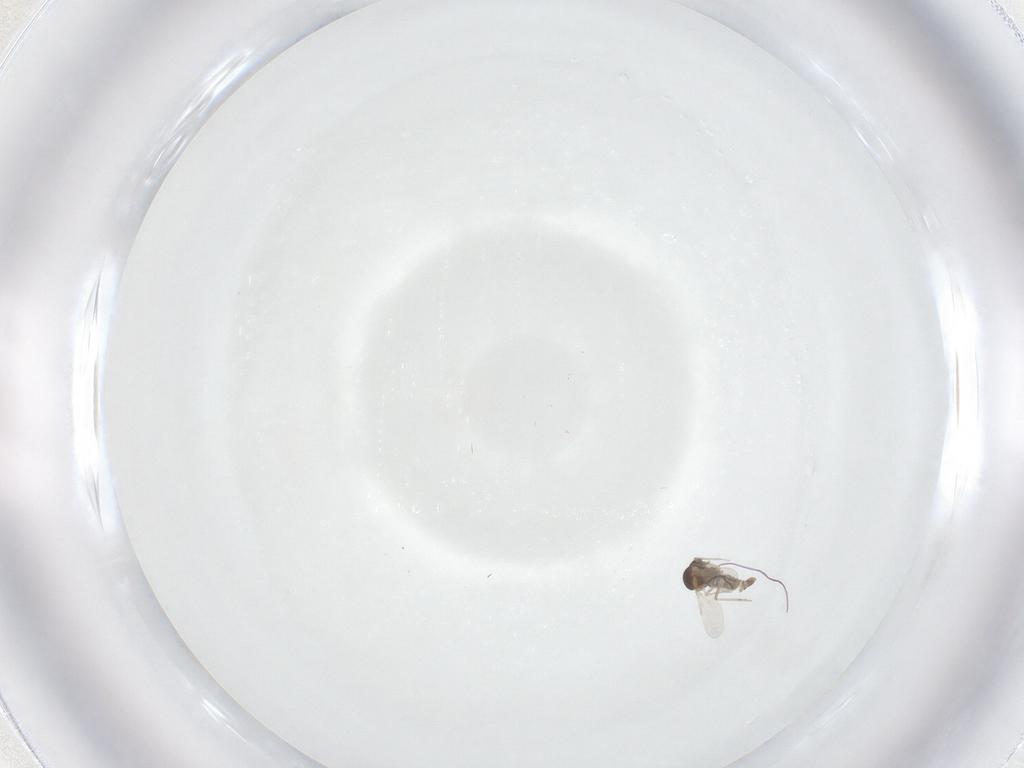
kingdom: Animalia
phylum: Arthropoda
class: Insecta
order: Diptera
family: Ceratopogonidae
